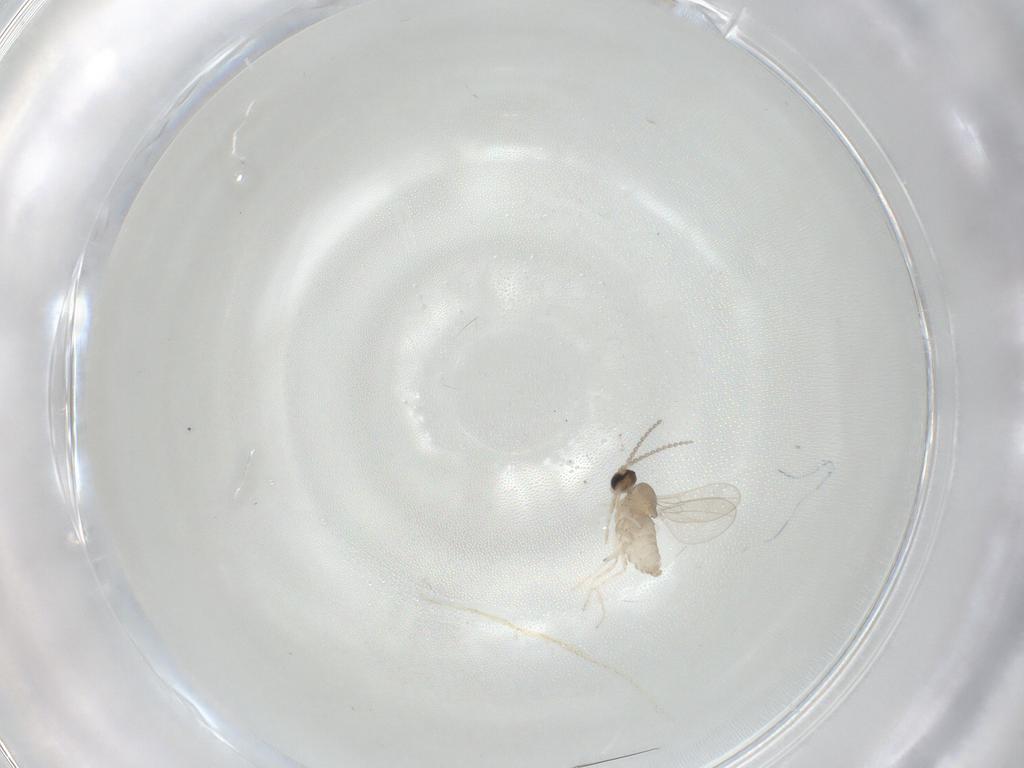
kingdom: Animalia
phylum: Arthropoda
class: Insecta
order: Diptera
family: Cecidomyiidae
